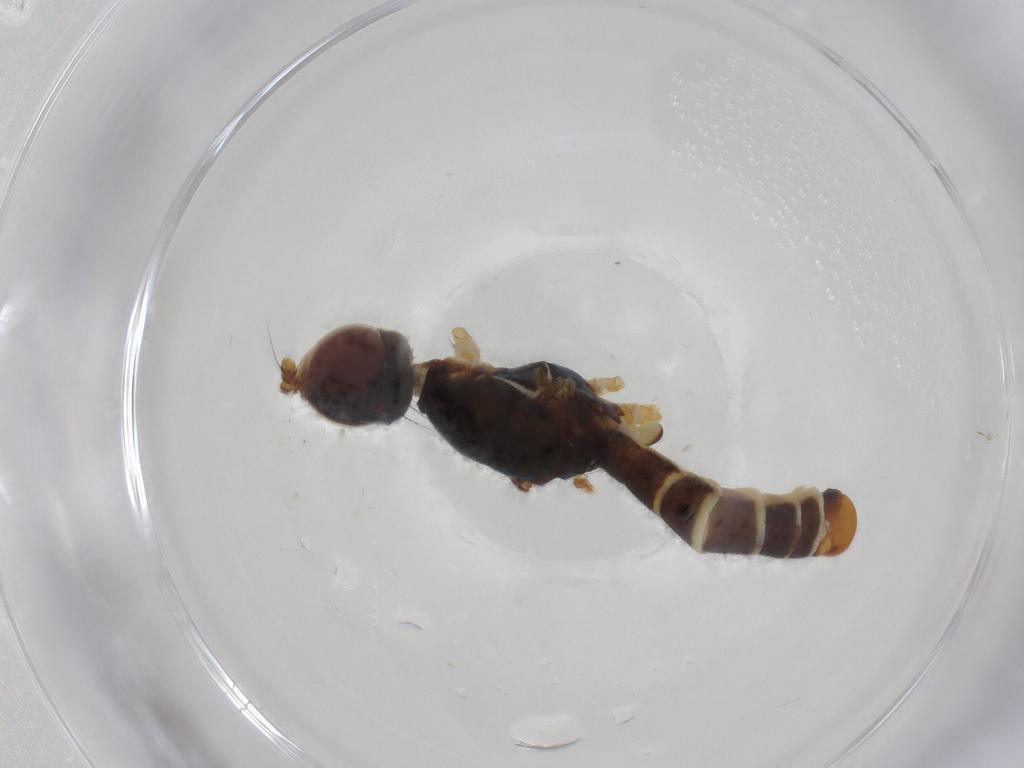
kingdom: Animalia
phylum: Arthropoda
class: Insecta
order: Diptera
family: Micropezidae
